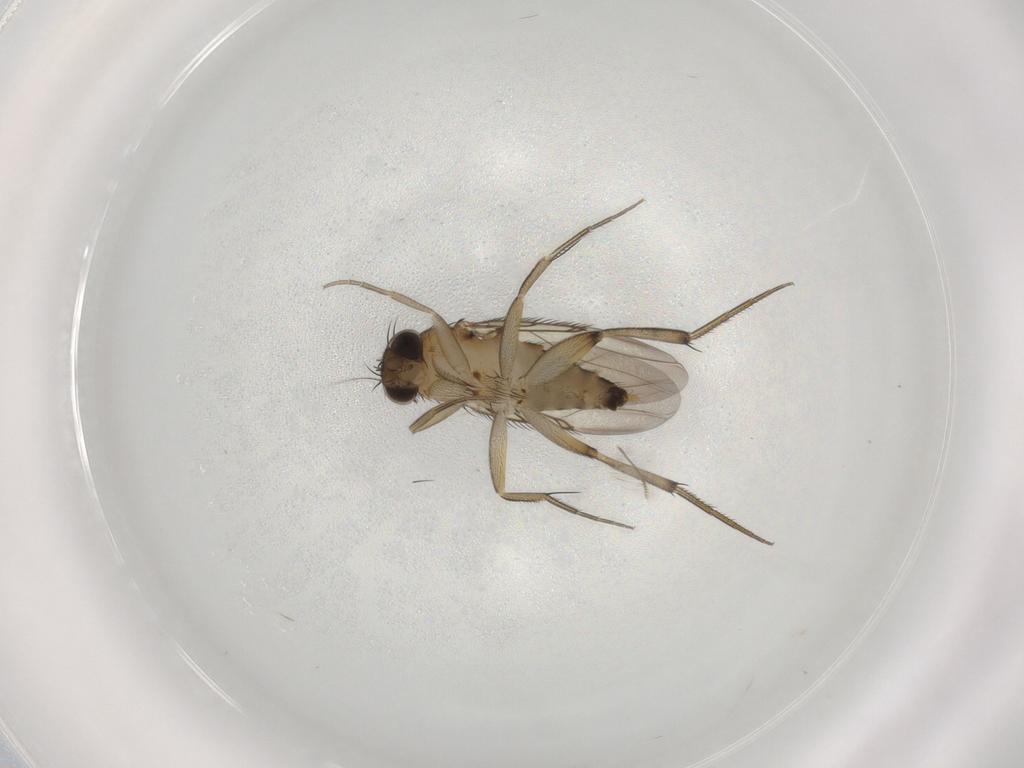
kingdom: Animalia
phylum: Arthropoda
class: Insecta
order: Diptera
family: Phoridae
